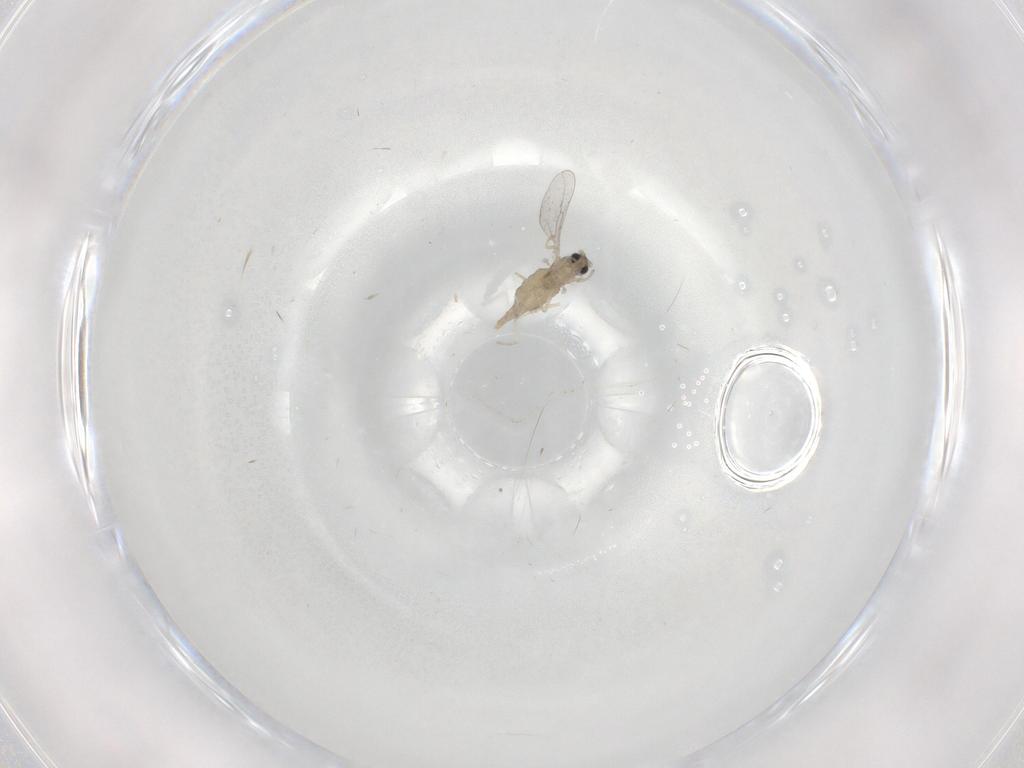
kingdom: Animalia
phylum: Arthropoda
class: Insecta
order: Diptera
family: Cecidomyiidae
